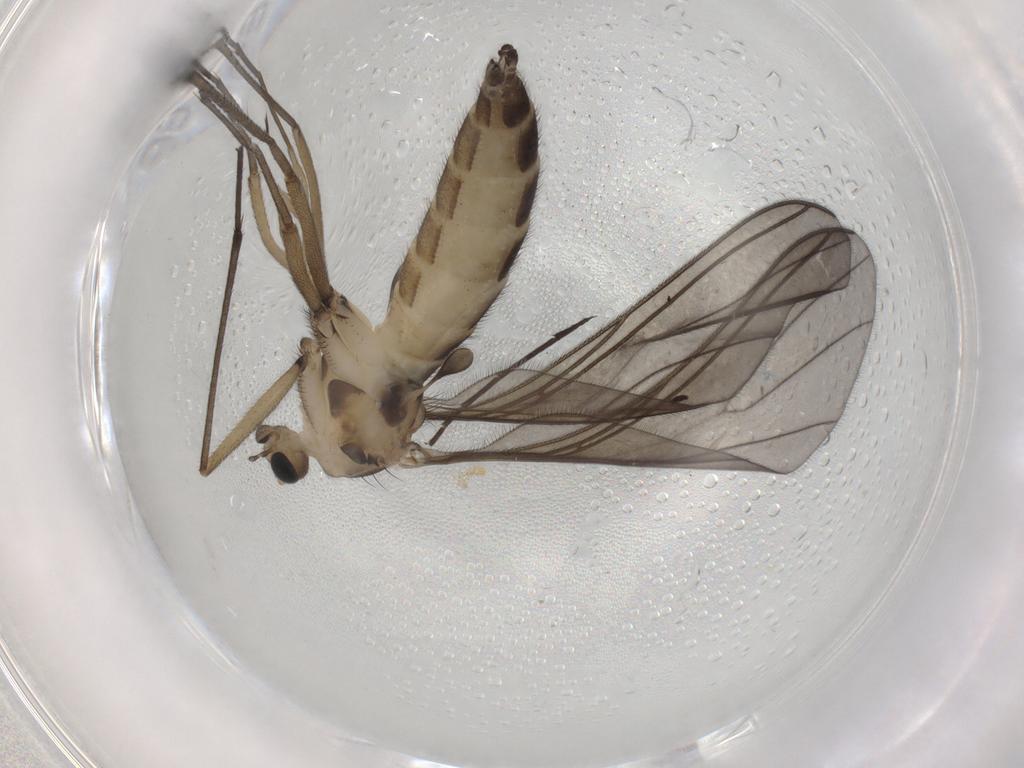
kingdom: Animalia
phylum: Arthropoda
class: Insecta
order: Diptera
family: Sciaridae
